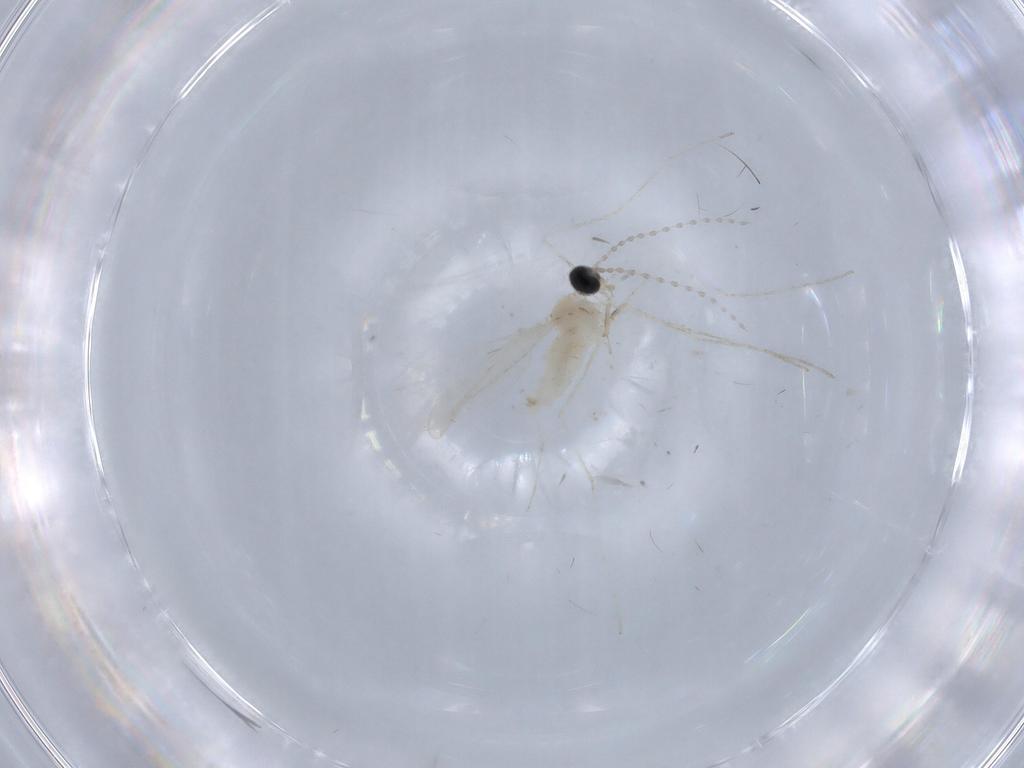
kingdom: Animalia
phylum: Arthropoda
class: Insecta
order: Diptera
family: Cecidomyiidae
